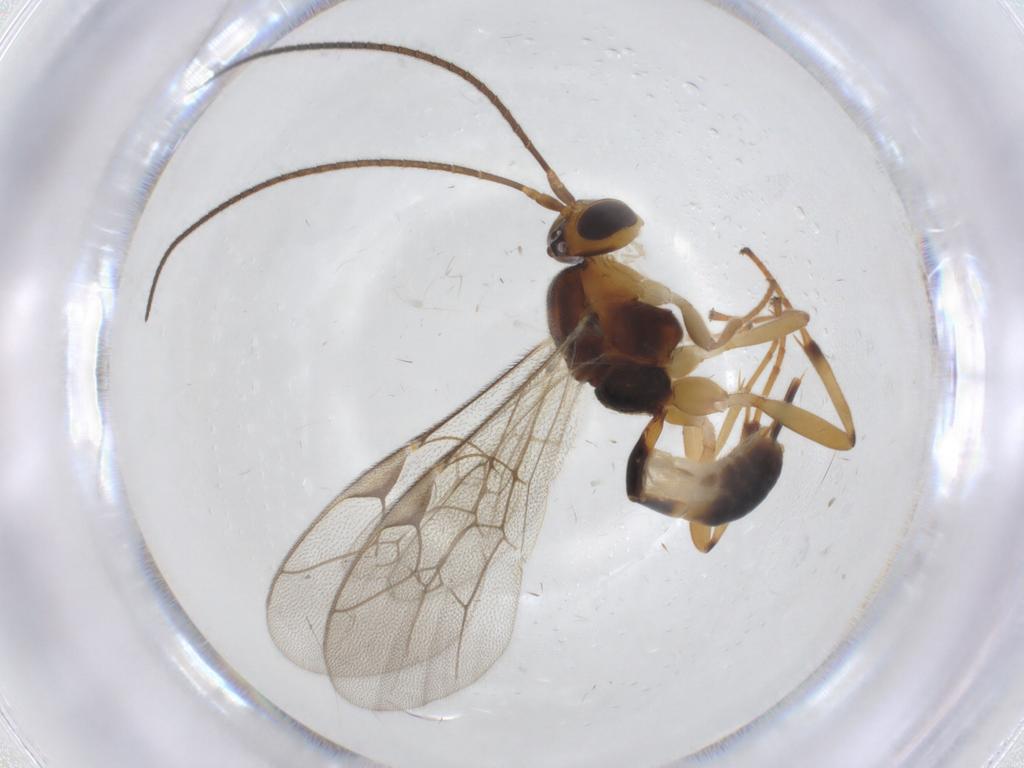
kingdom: Animalia
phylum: Arthropoda
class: Insecta
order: Hymenoptera
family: Ichneumonidae
